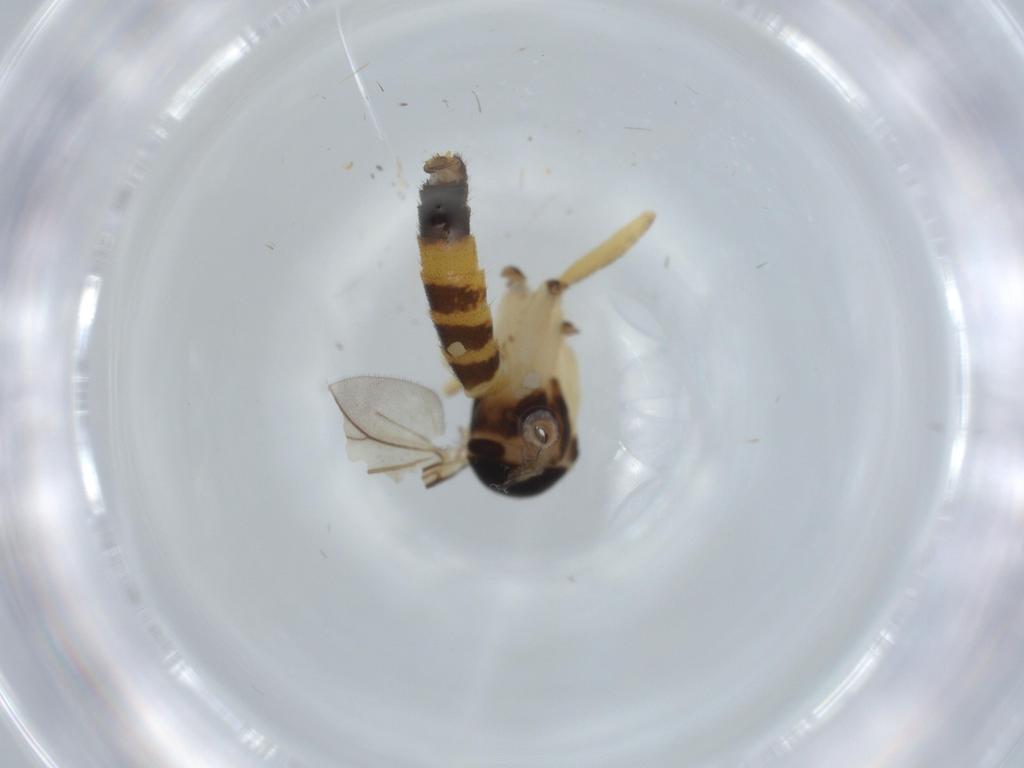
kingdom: Animalia
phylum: Arthropoda
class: Insecta
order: Diptera
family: Mycetophilidae
